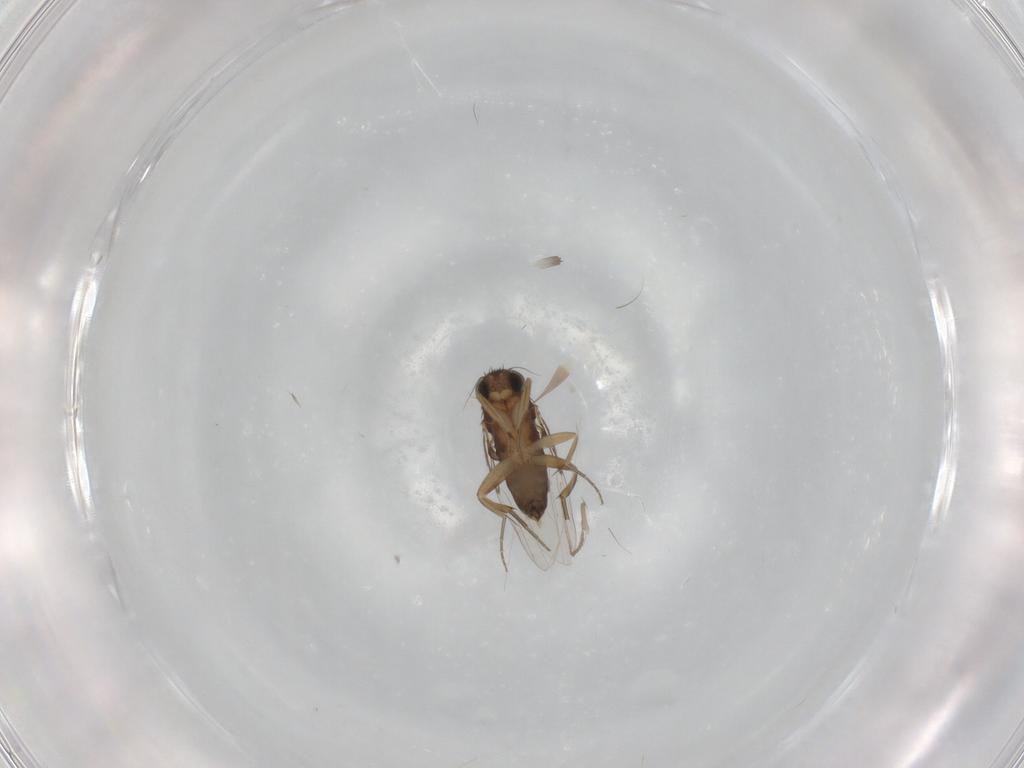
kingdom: Animalia
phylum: Arthropoda
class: Insecta
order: Diptera
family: Phoridae
